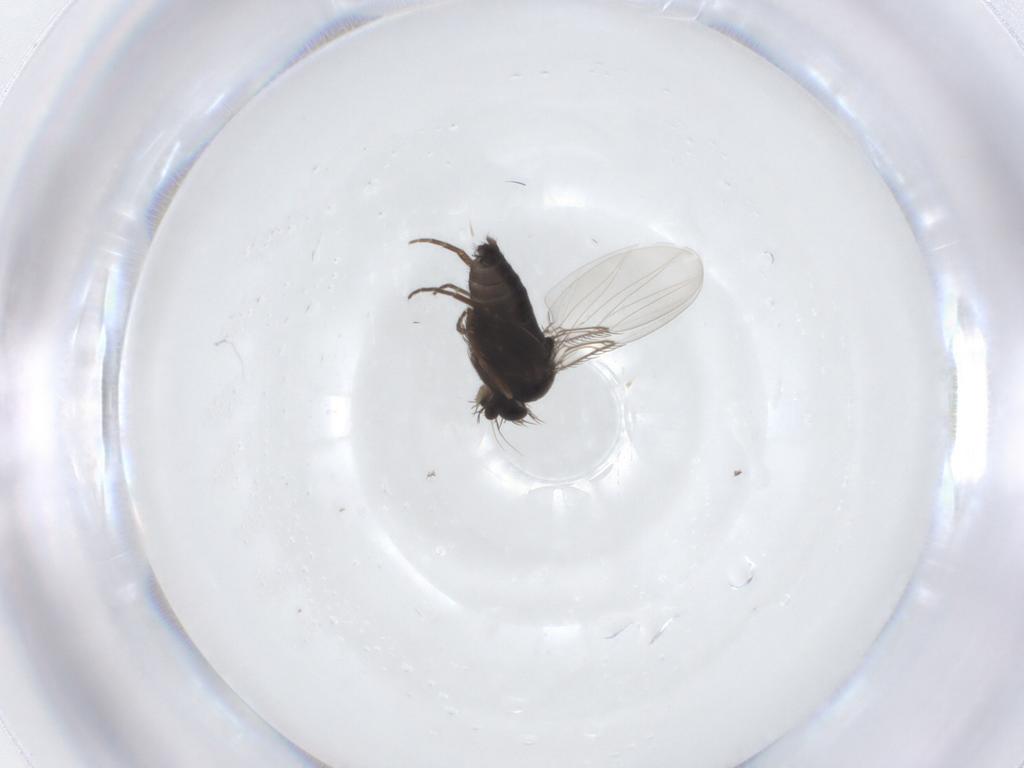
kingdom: Animalia
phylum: Arthropoda
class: Insecta
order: Diptera
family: Phoridae
